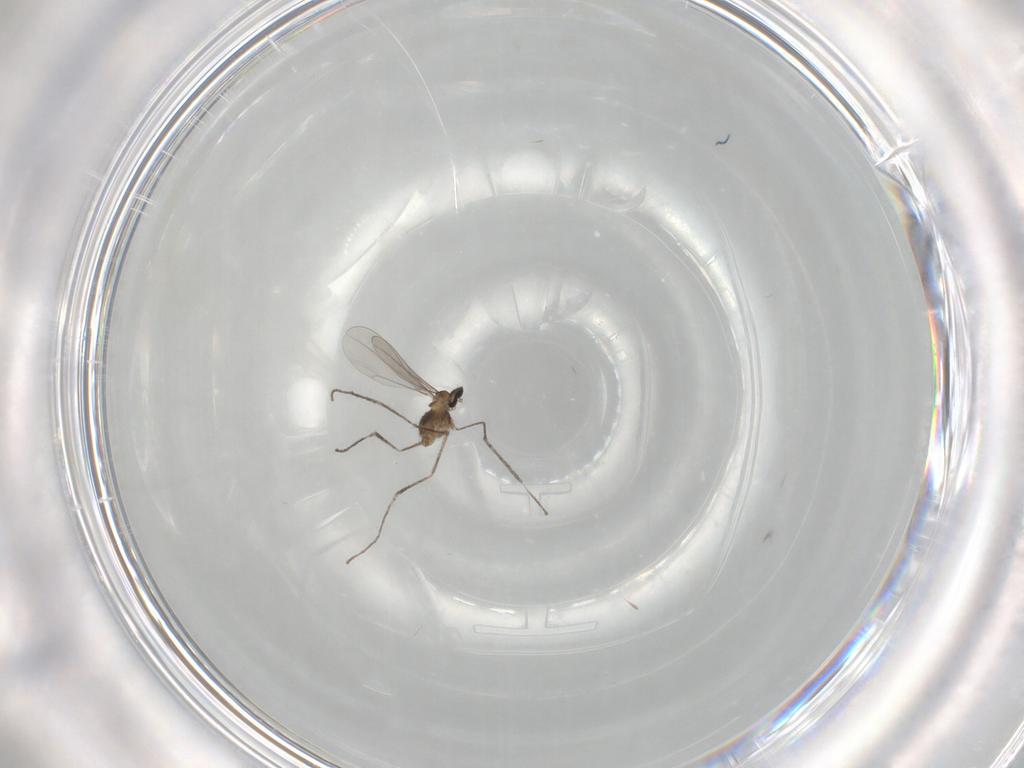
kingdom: Animalia
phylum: Arthropoda
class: Insecta
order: Diptera
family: Cecidomyiidae
